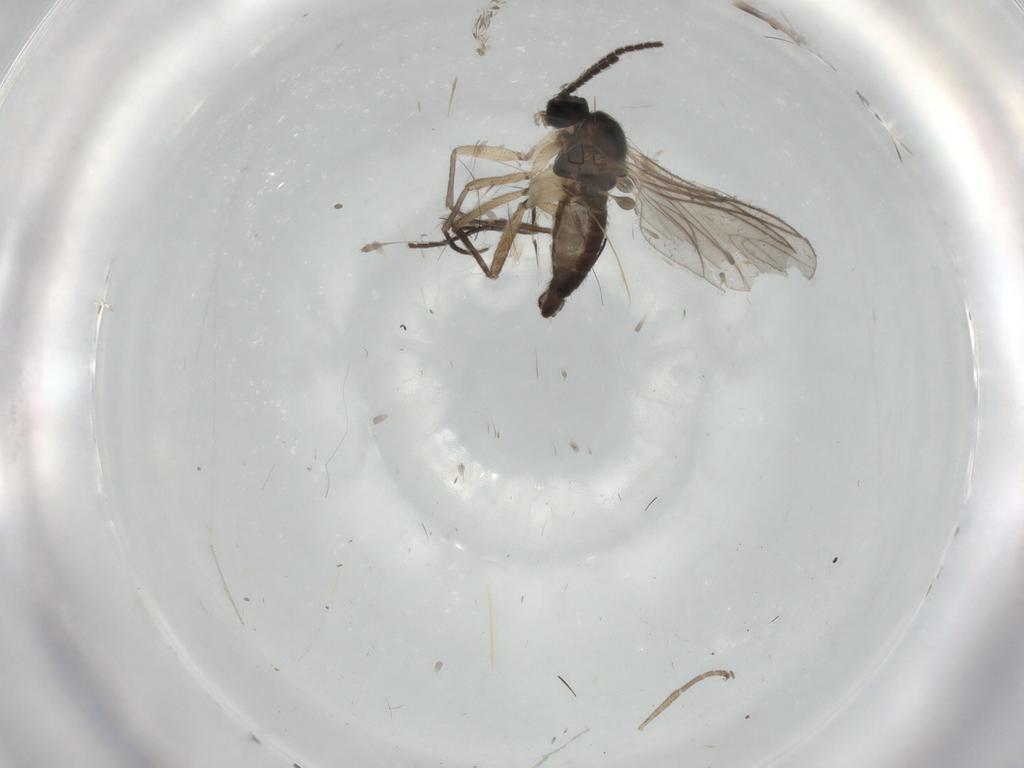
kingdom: Animalia
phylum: Arthropoda
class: Insecta
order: Diptera
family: Sciaridae
